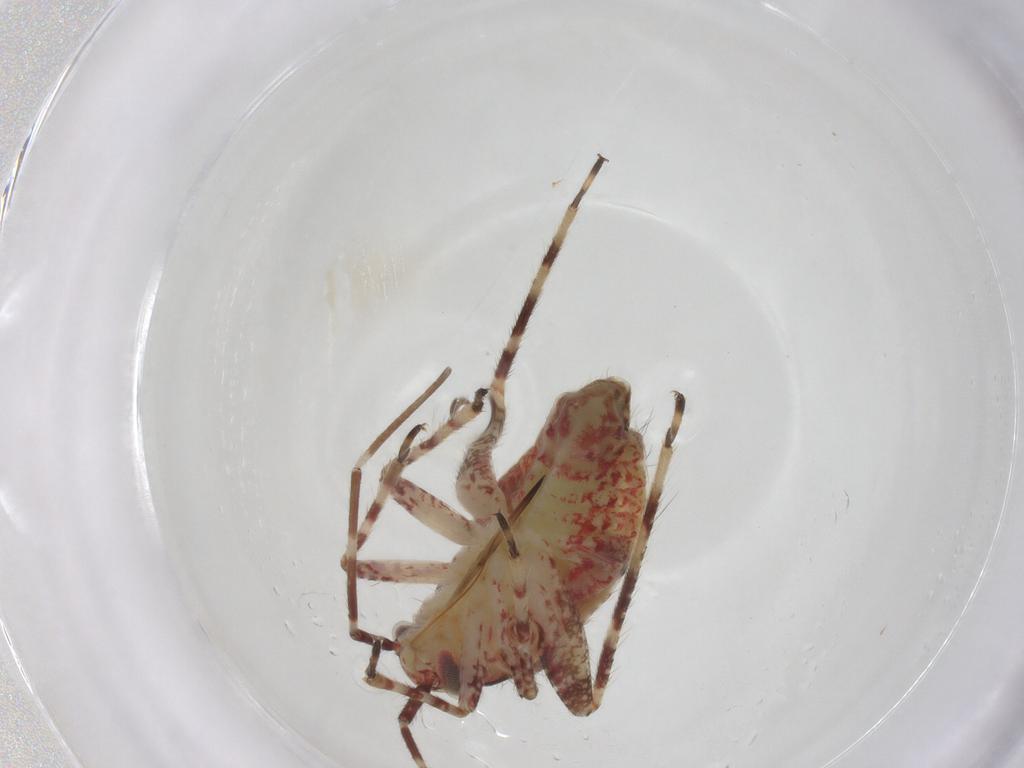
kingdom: Animalia
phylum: Arthropoda
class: Insecta
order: Hemiptera
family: Miridae
